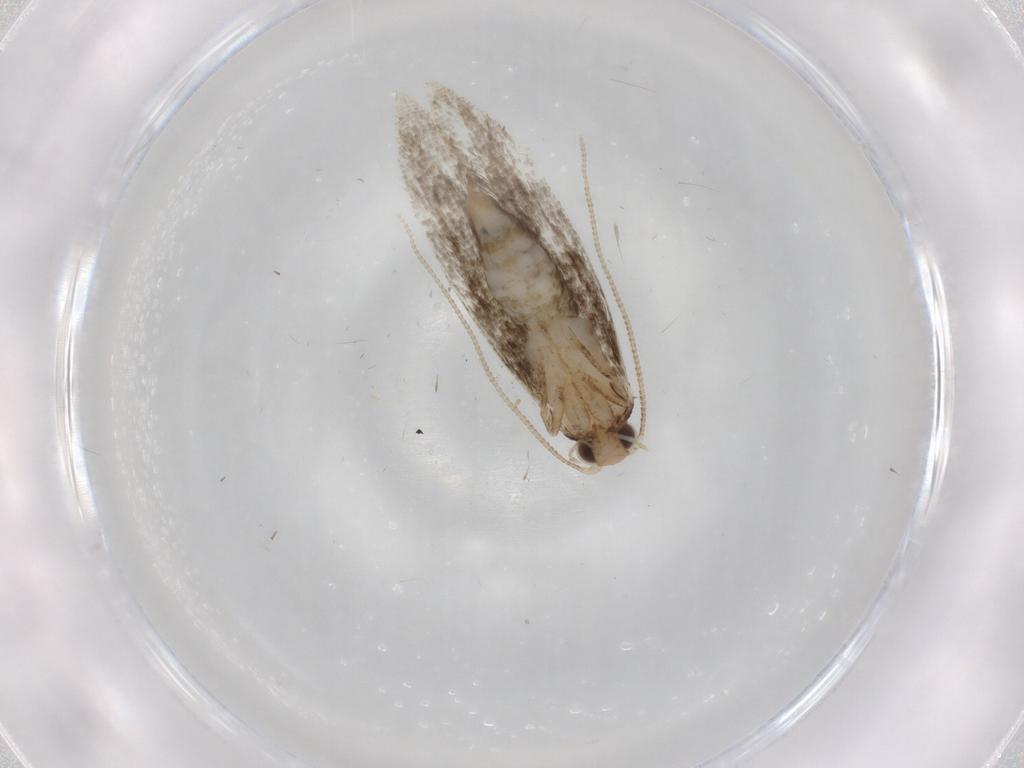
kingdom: Animalia
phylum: Arthropoda
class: Insecta
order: Lepidoptera
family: Tineidae
